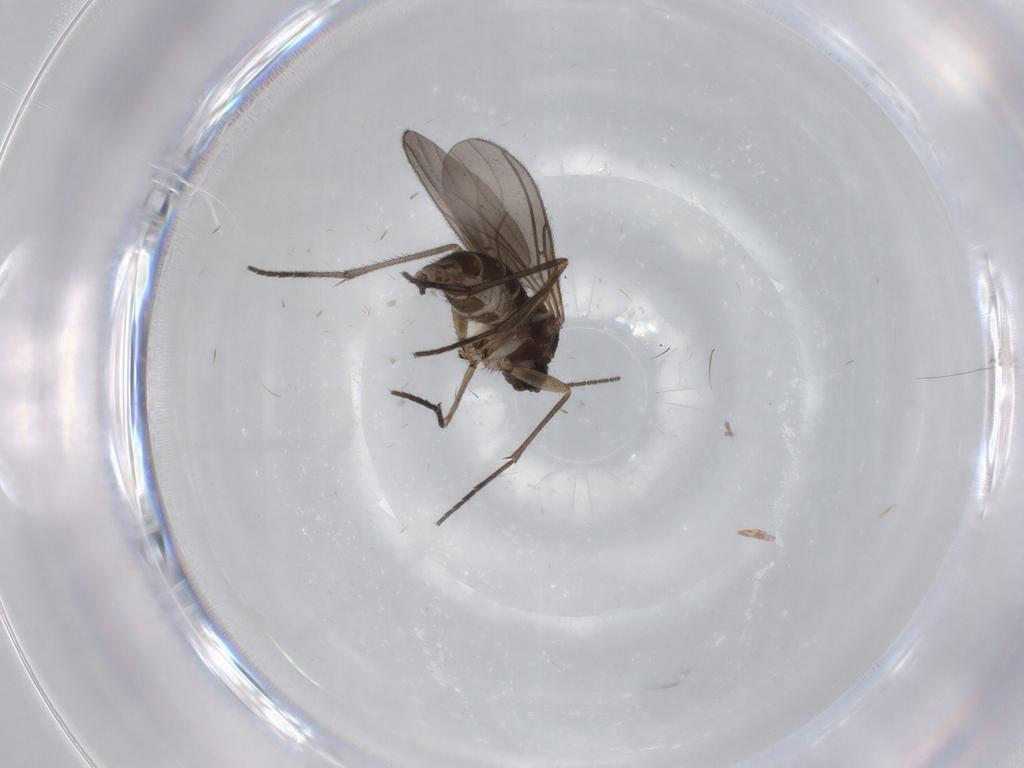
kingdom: Animalia
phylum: Arthropoda
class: Insecta
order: Diptera
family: Sciaridae
